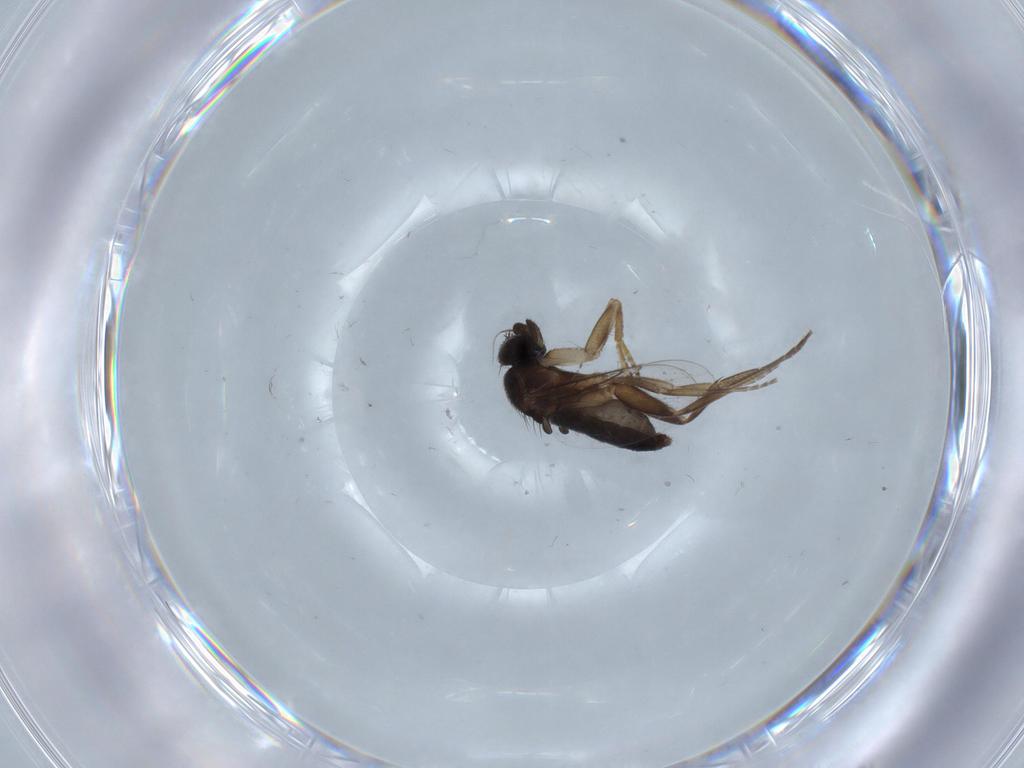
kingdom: Animalia
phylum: Arthropoda
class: Insecta
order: Diptera
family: Phoridae
